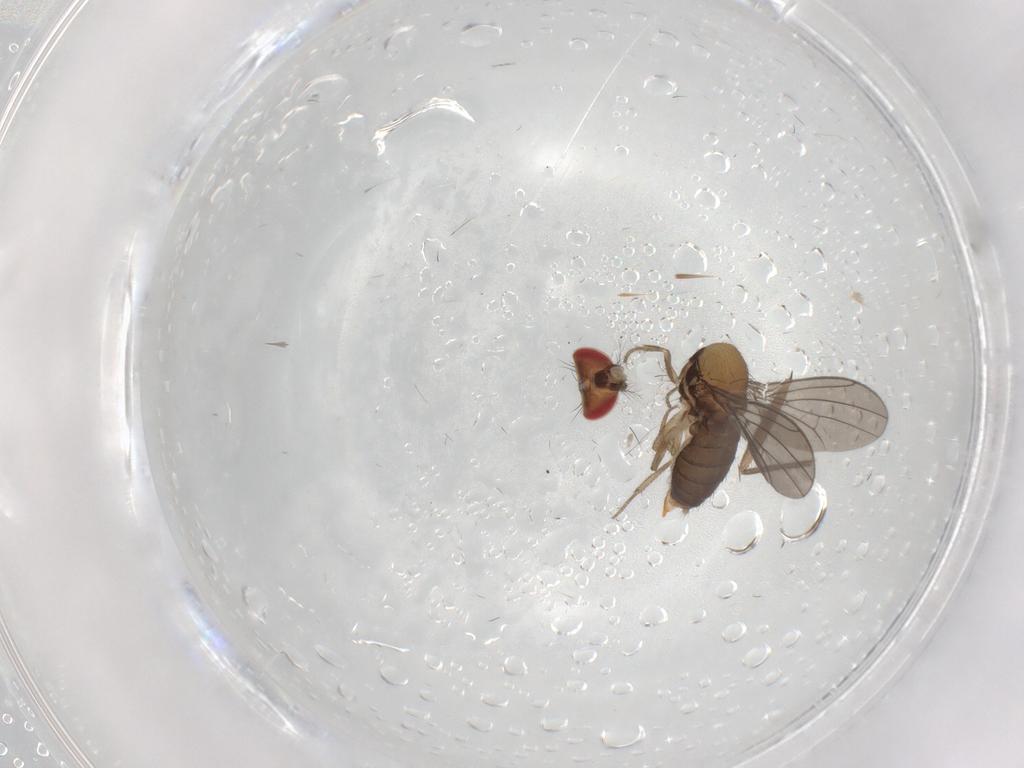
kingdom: Animalia
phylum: Arthropoda
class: Insecta
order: Diptera
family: Drosophilidae
